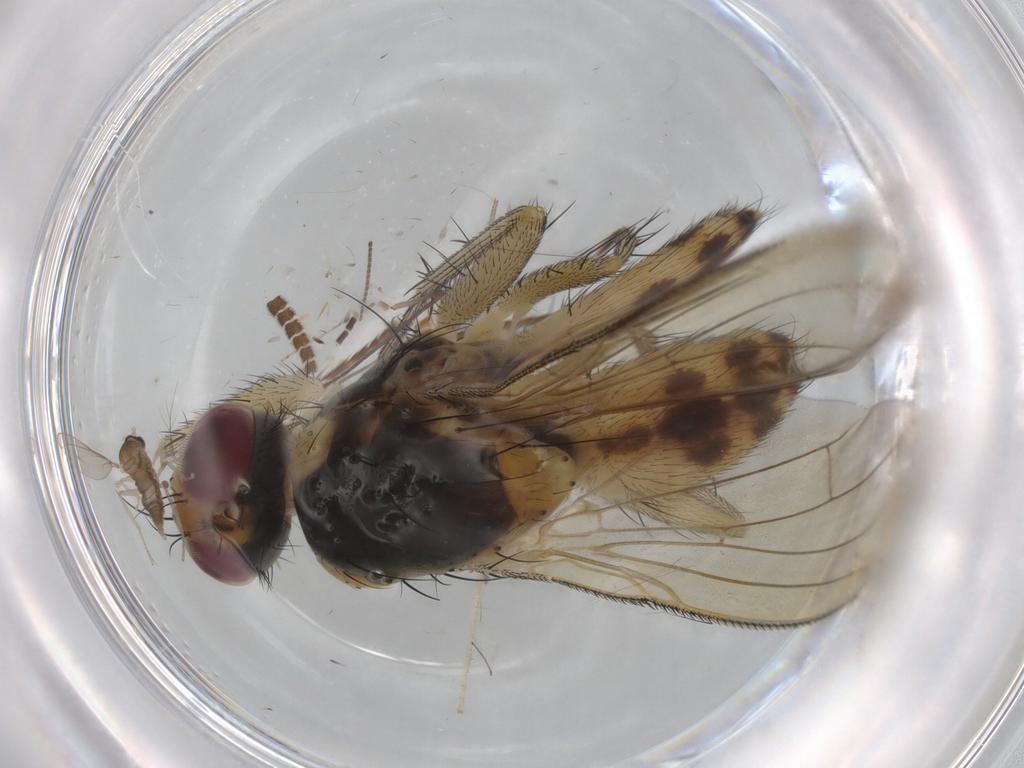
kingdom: Animalia
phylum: Arthropoda
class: Insecta
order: Diptera
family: Muscidae
